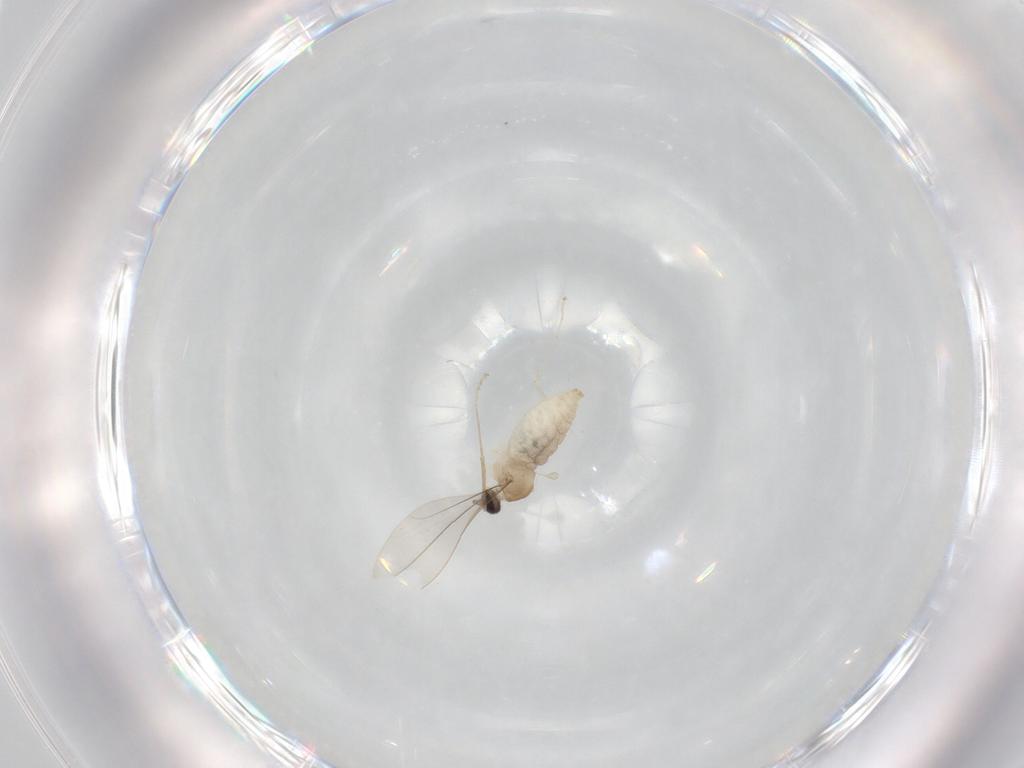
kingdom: Animalia
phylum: Arthropoda
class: Insecta
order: Diptera
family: Cecidomyiidae
